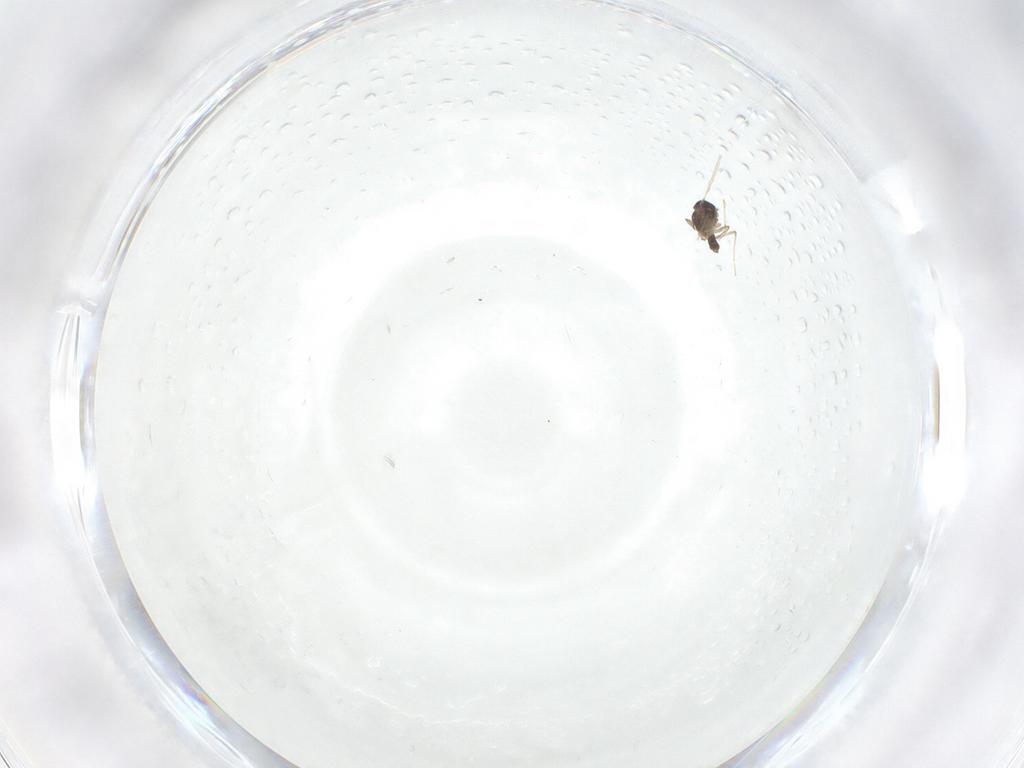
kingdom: Animalia
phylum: Arthropoda
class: Insecta
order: Diptera
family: Chironomidae
